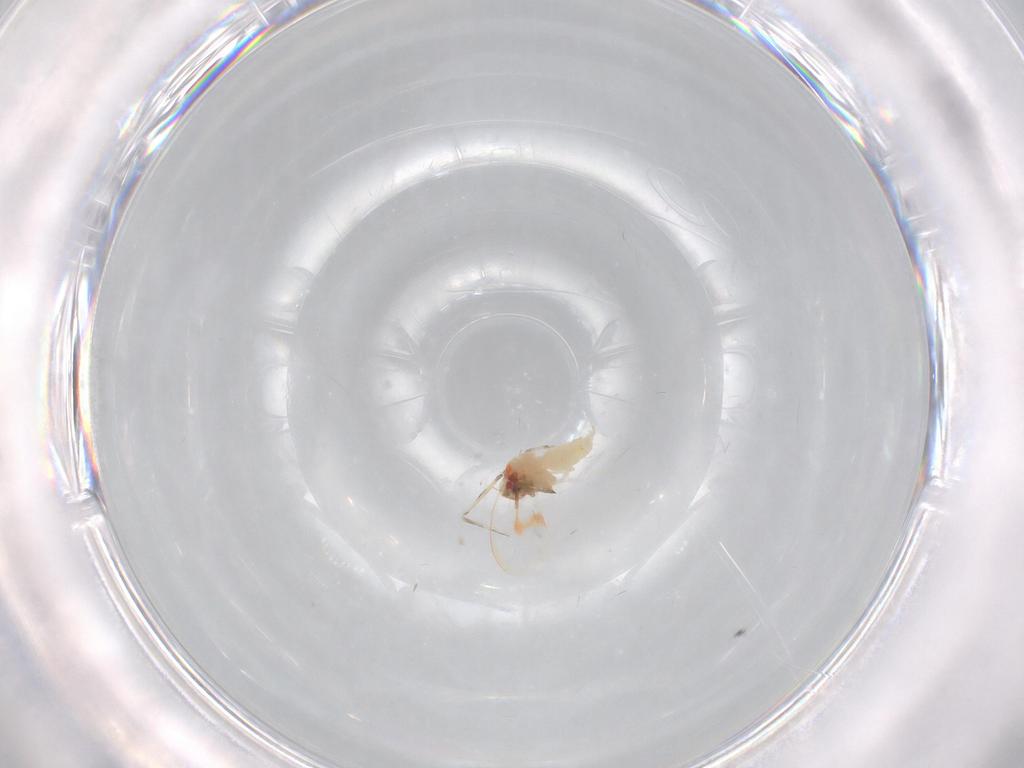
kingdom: Animalia
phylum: Arthropoda
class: Insecta
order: Hemiptera
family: Aleyrodidae
